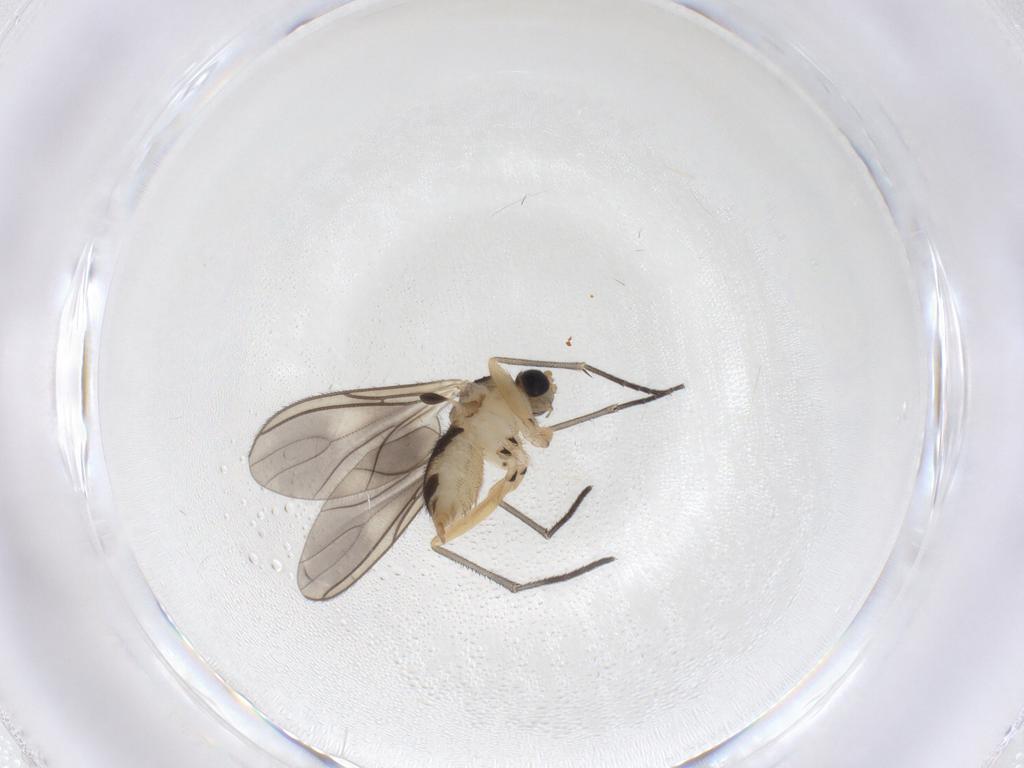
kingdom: Animalia
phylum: Arthropoda
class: Insecta
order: Diptera
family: Sciaridae
